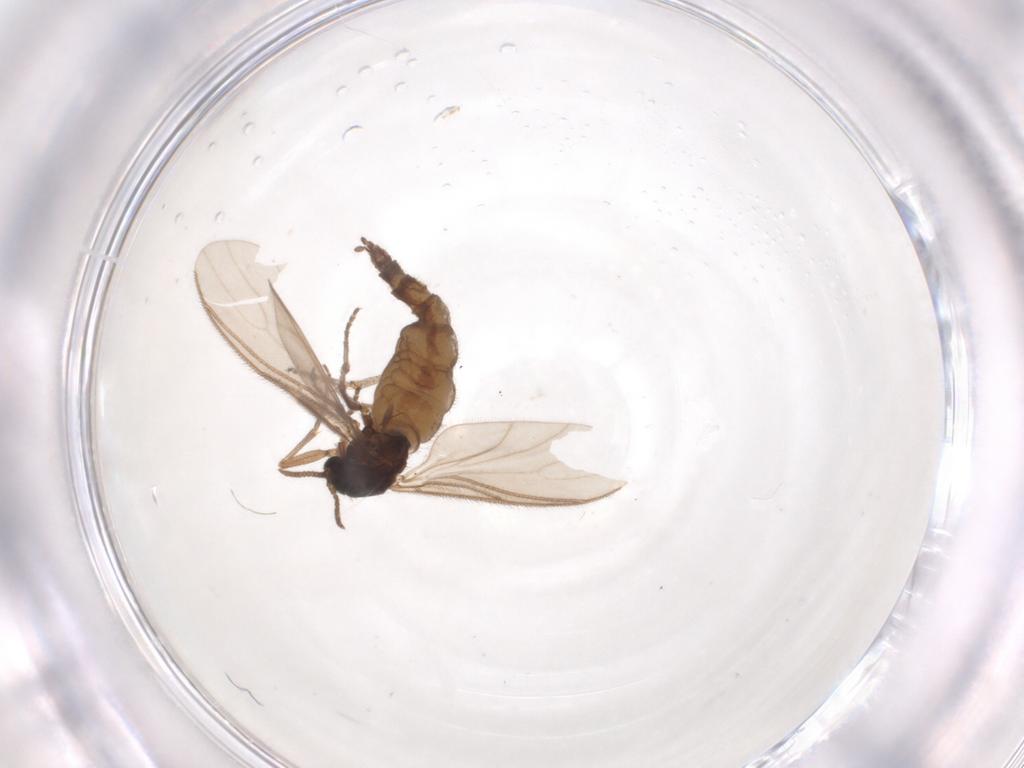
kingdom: Animalia
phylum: Arthropoda
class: Insecta
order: Diptera
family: Sciaridae
